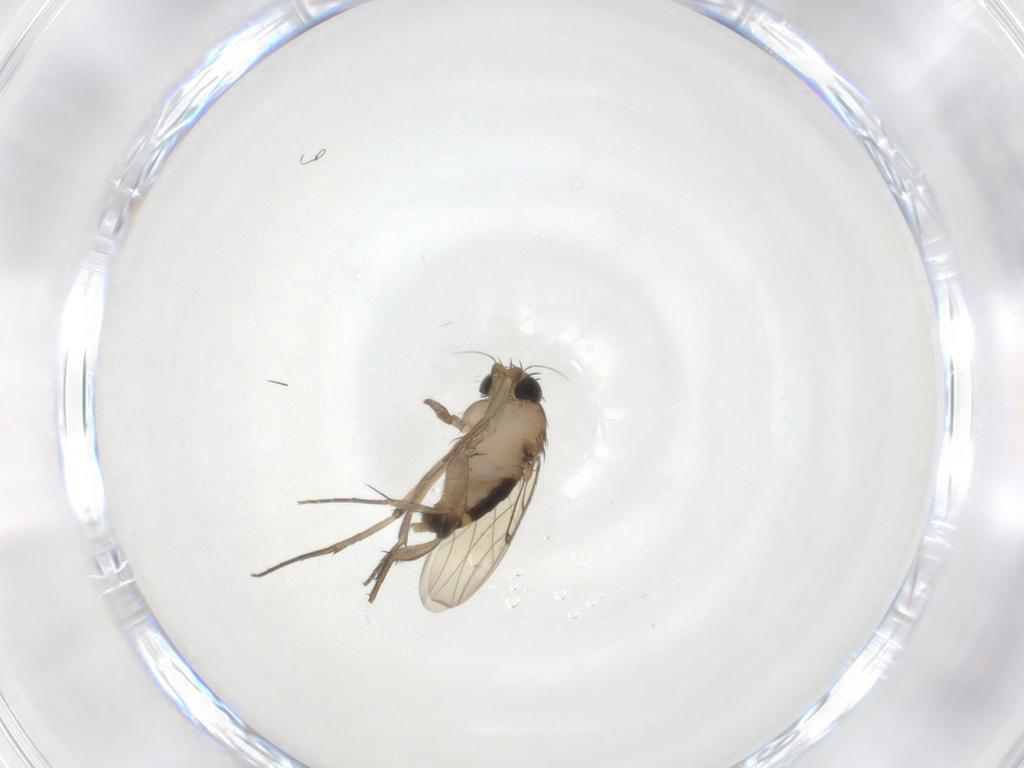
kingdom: Animalia
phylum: Arthropoda
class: Insecta
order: Diptera
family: Phoridae
